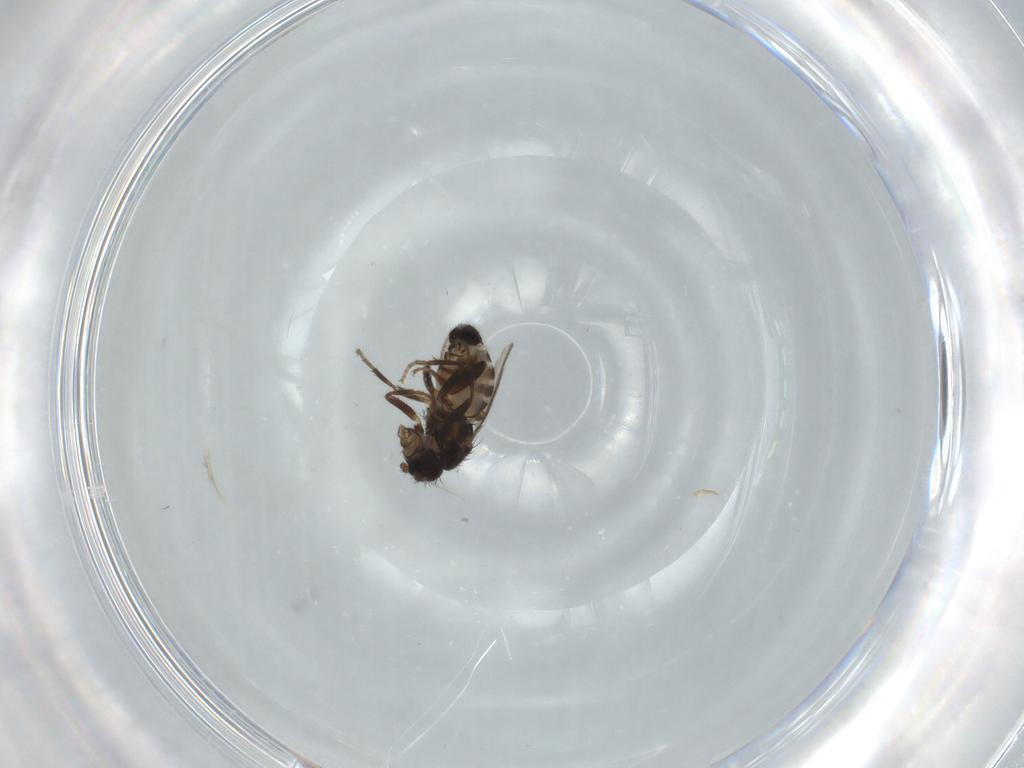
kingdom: Animalia
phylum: Arthropoda
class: Insecta
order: Diptera
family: Sphaeroceridae
